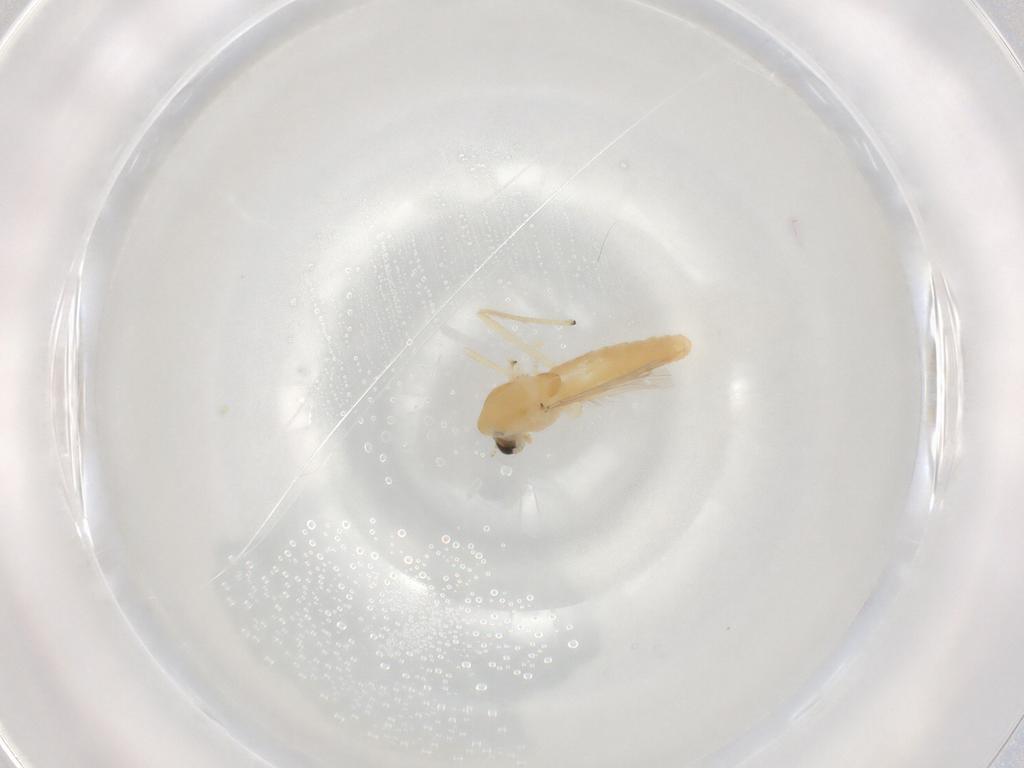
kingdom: Animalia
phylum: Arthropoda
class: Insecta
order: Diptera
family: Chironomidae
